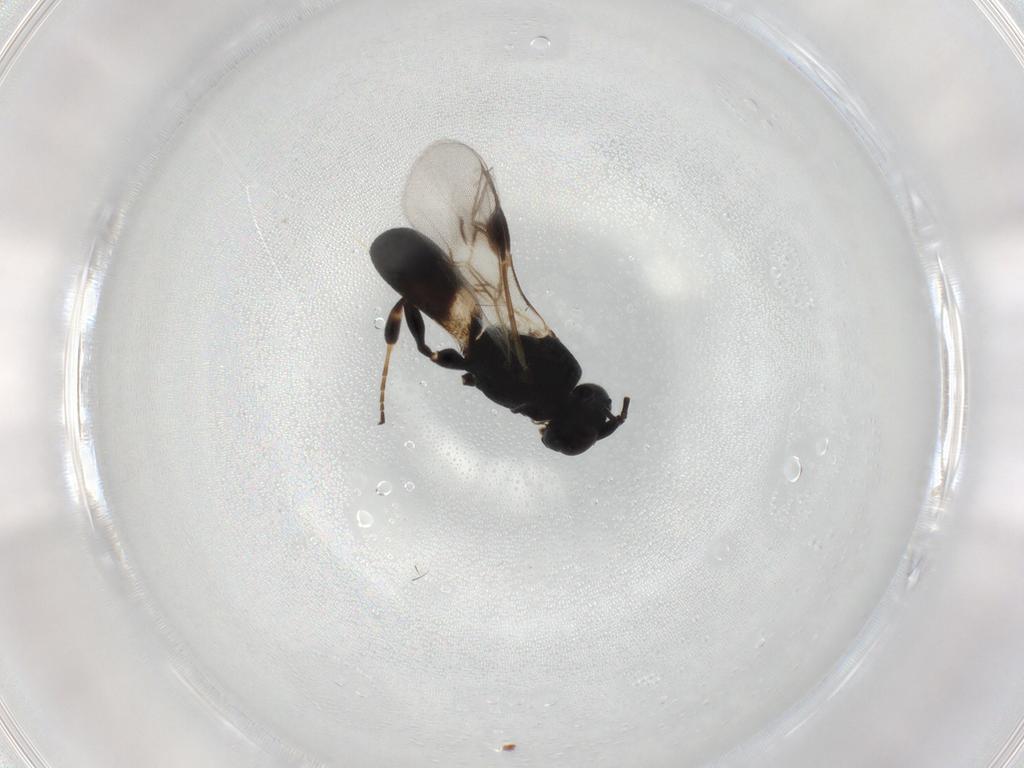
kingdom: Animalia
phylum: Arthropoda
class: Insecta
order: Hymenoptera
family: Braconidae
